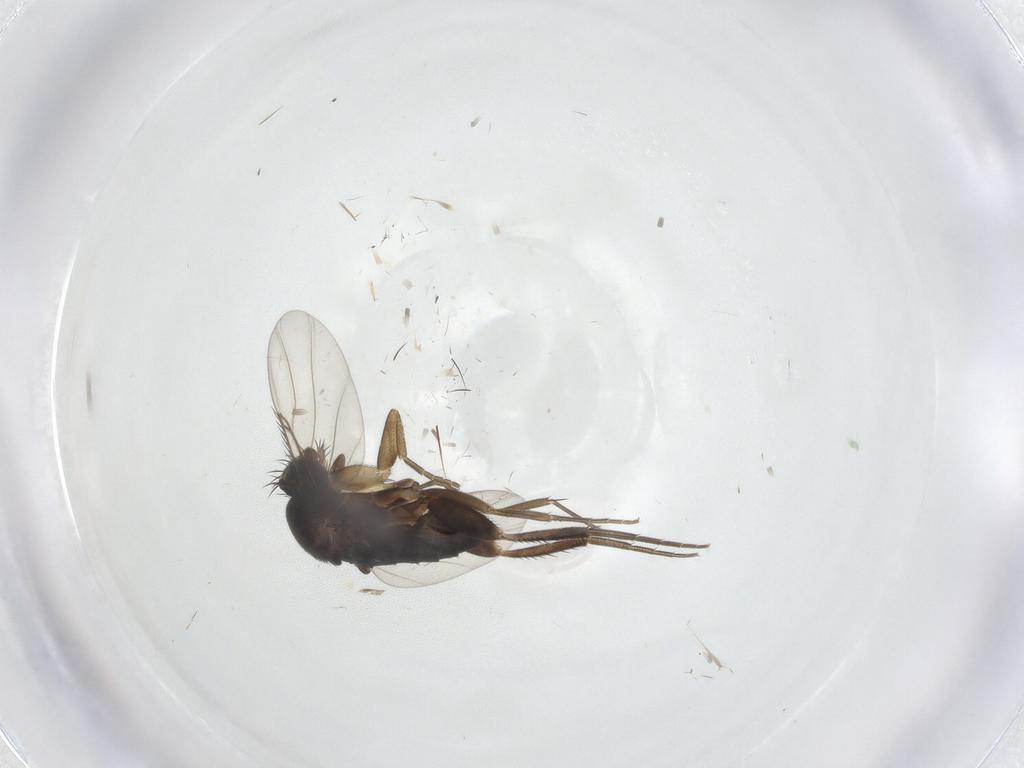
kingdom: Animalia
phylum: Arthropoda
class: Insecta
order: Diptera
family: Phoridae
